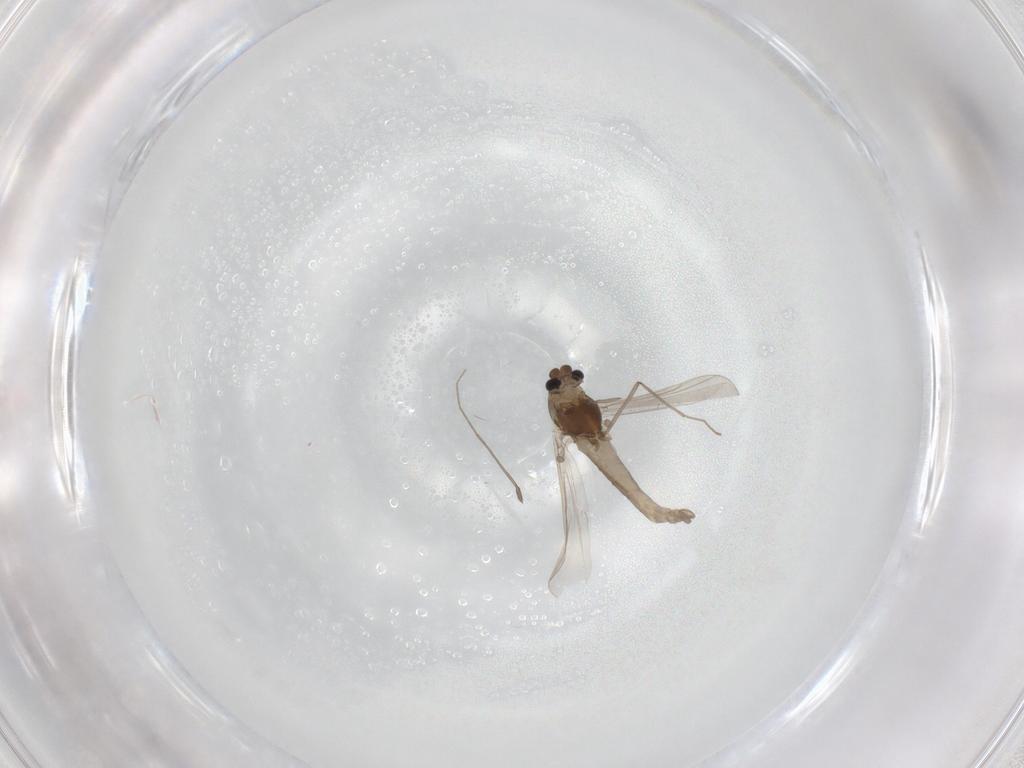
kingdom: Animalia
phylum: Arthropoda
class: Insecta
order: Diptera
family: Chironomidae
